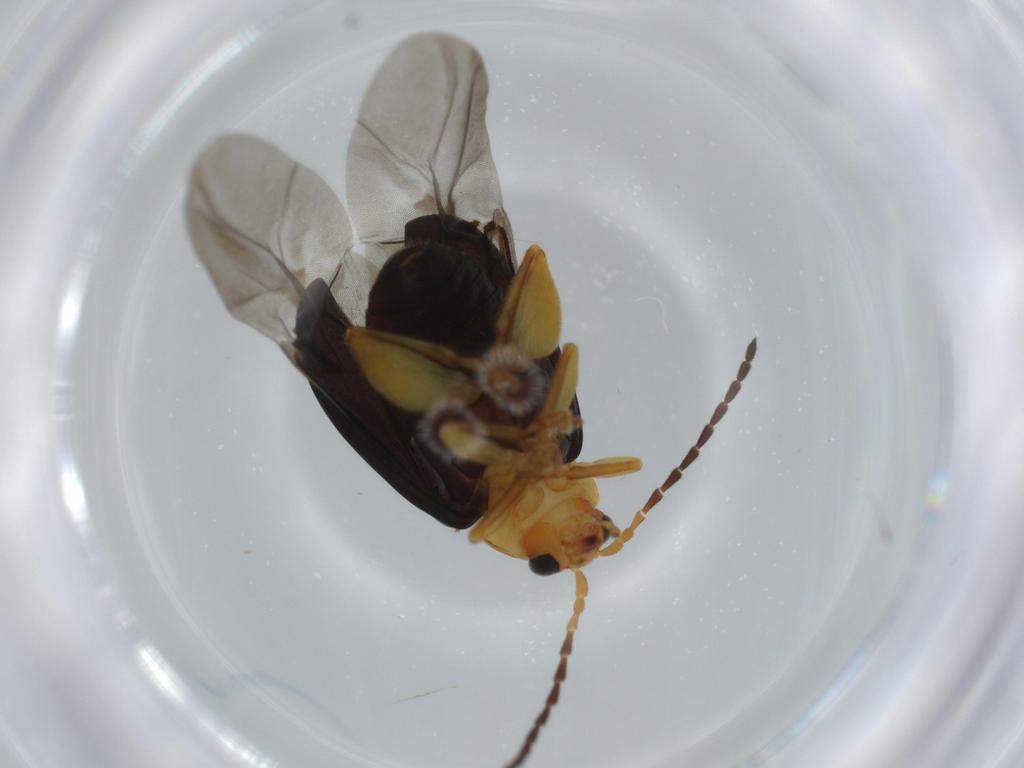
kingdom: Animalia
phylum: Arthropoda
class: Insecta
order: Coleoptera
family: Chrysomelidae
